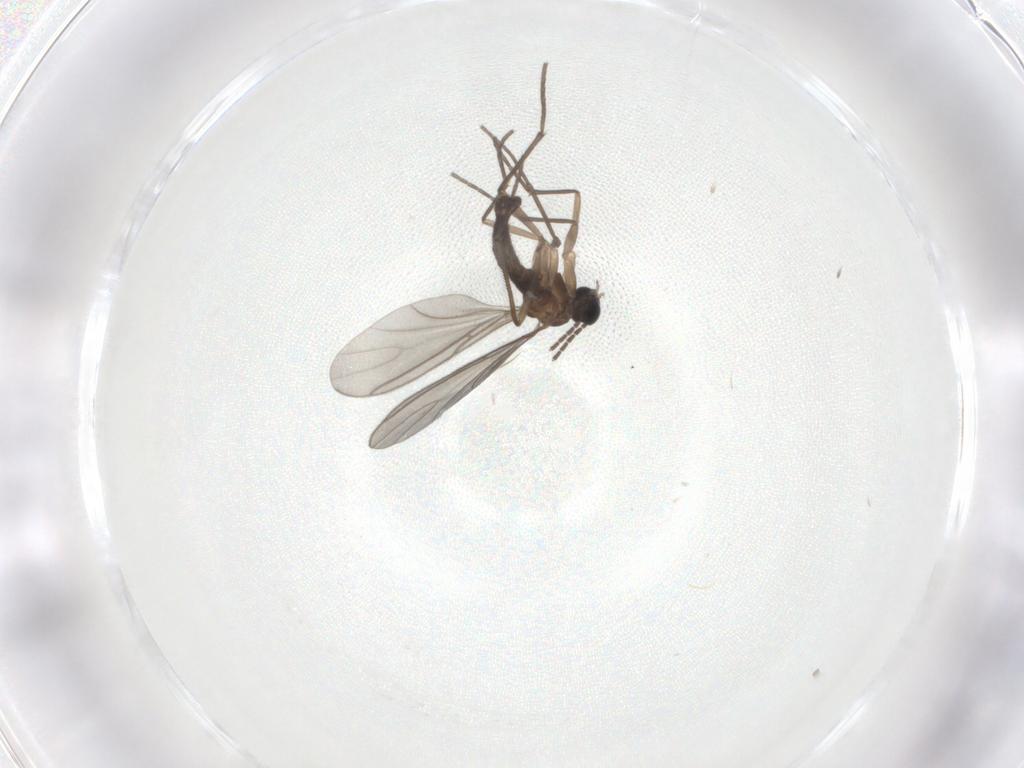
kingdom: Animalia
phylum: Arthropoda
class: Insecta
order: Diptera
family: Sciaridae
